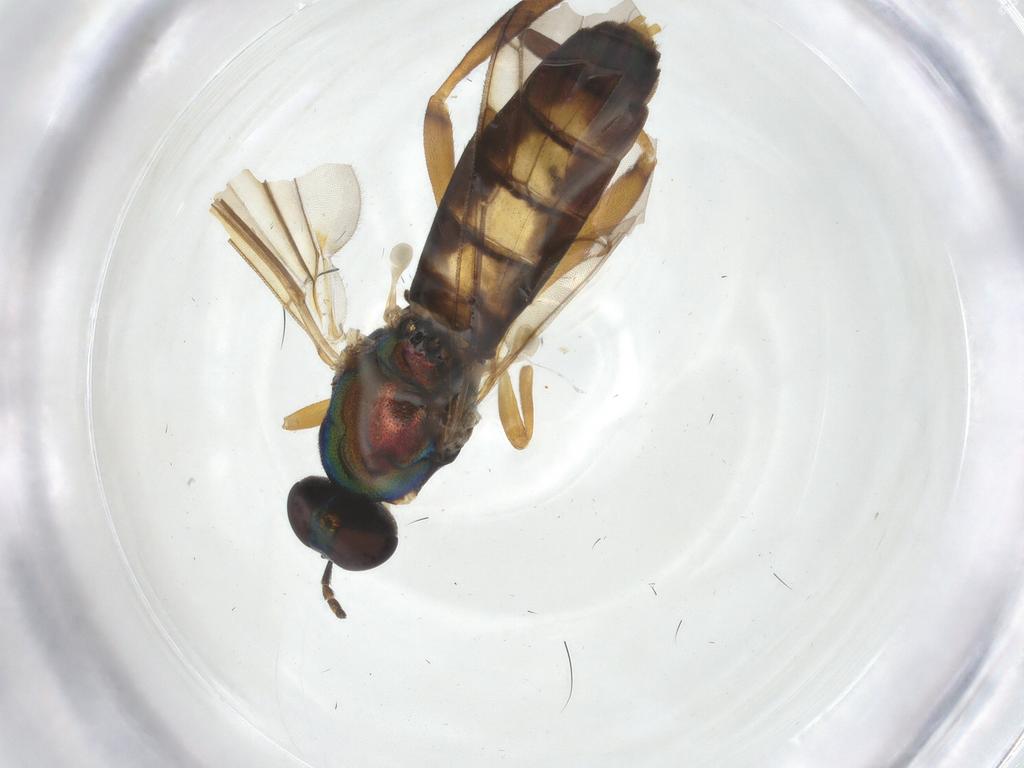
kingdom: Animalia
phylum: Arthropoda
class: Insecta
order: Diptera
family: Stratiomyidae
